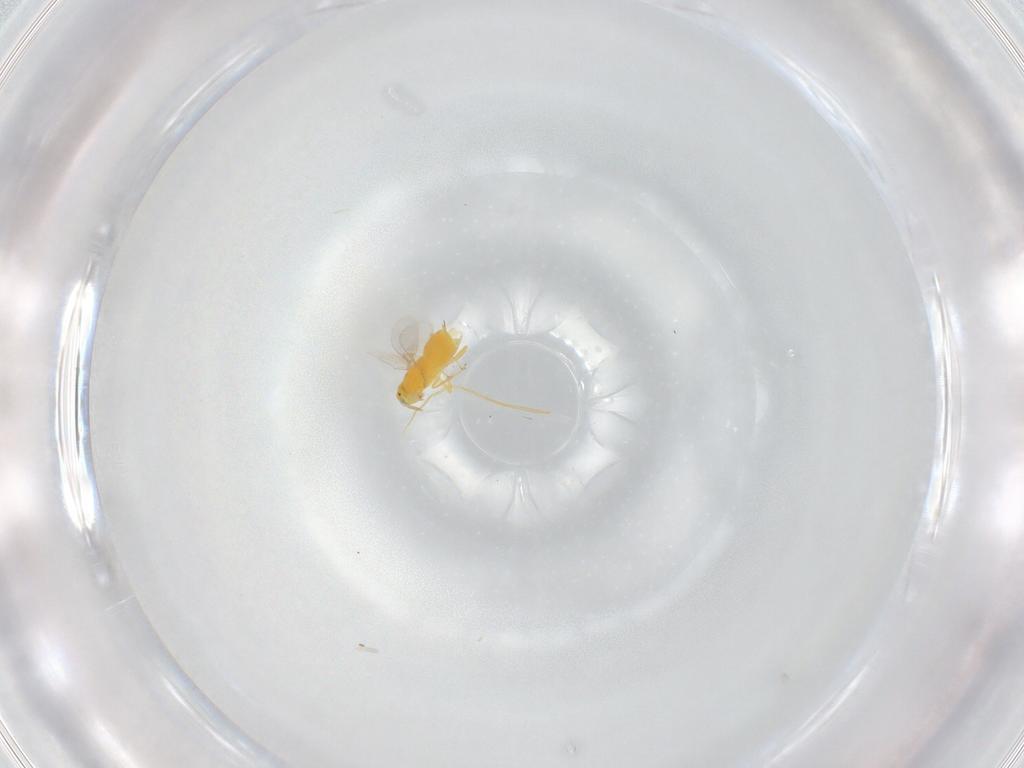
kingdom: Animalia
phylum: Arthropoda
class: Insecta
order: Hymenoptera
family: Aphelinidae
